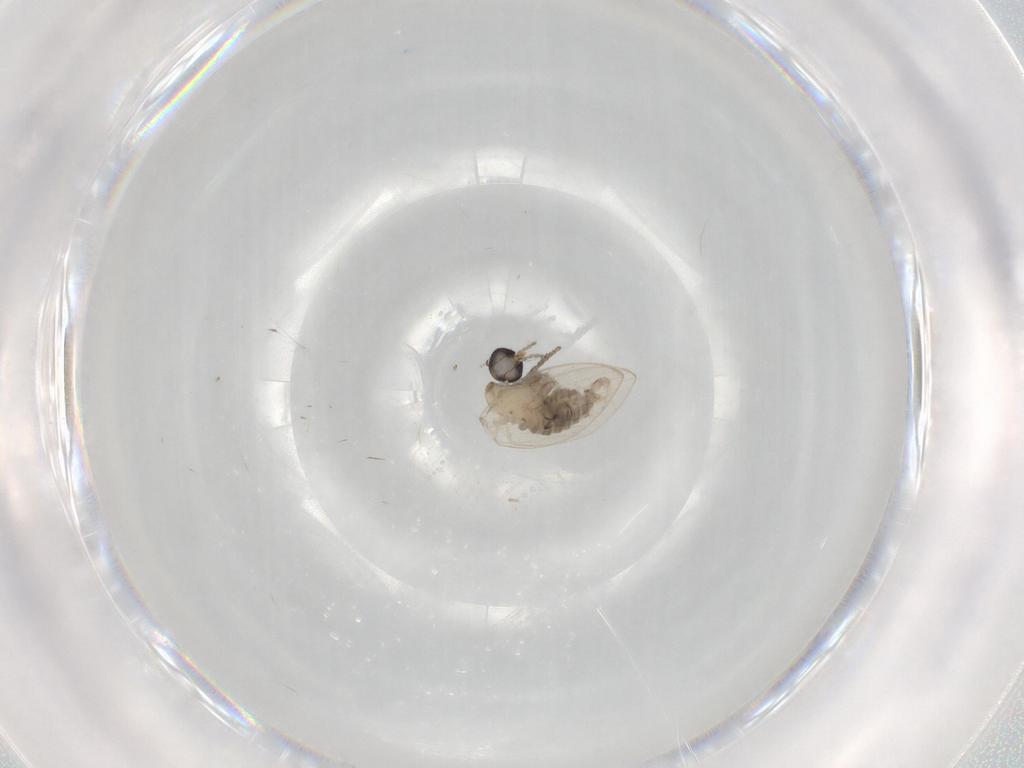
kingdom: Animalia
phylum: Arthropoda
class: Insecta
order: Diptera
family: Psychodidae
